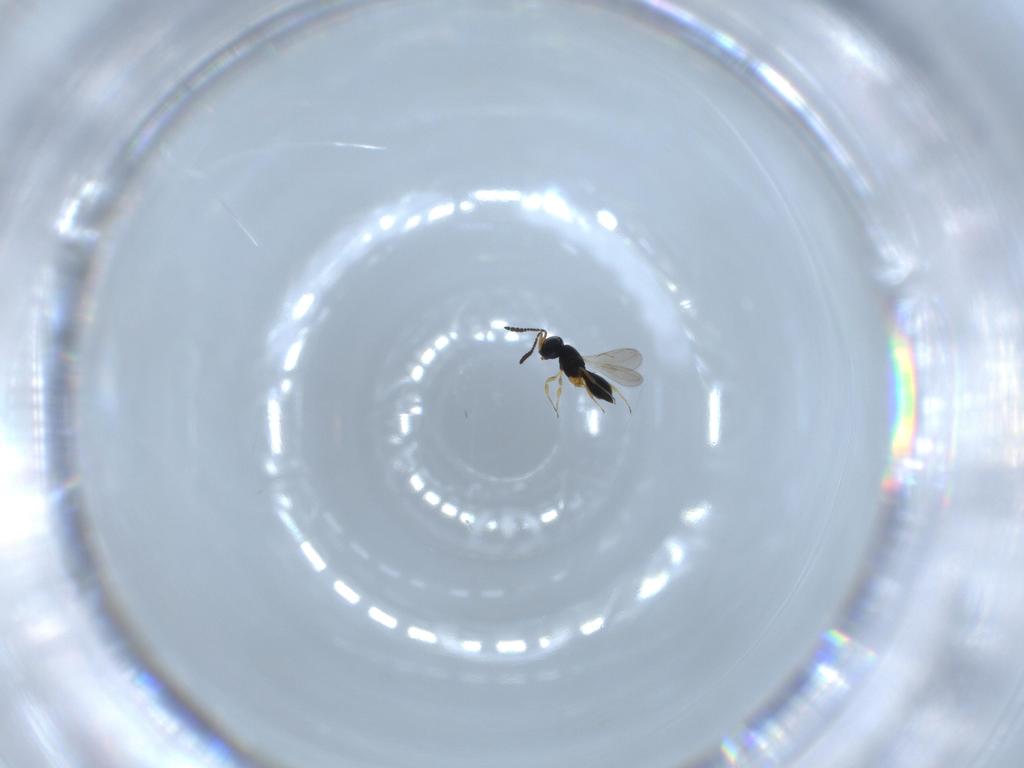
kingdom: Animalia
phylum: Arthropoda
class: Insecta
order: Hymenoptera
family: Scelionidae
